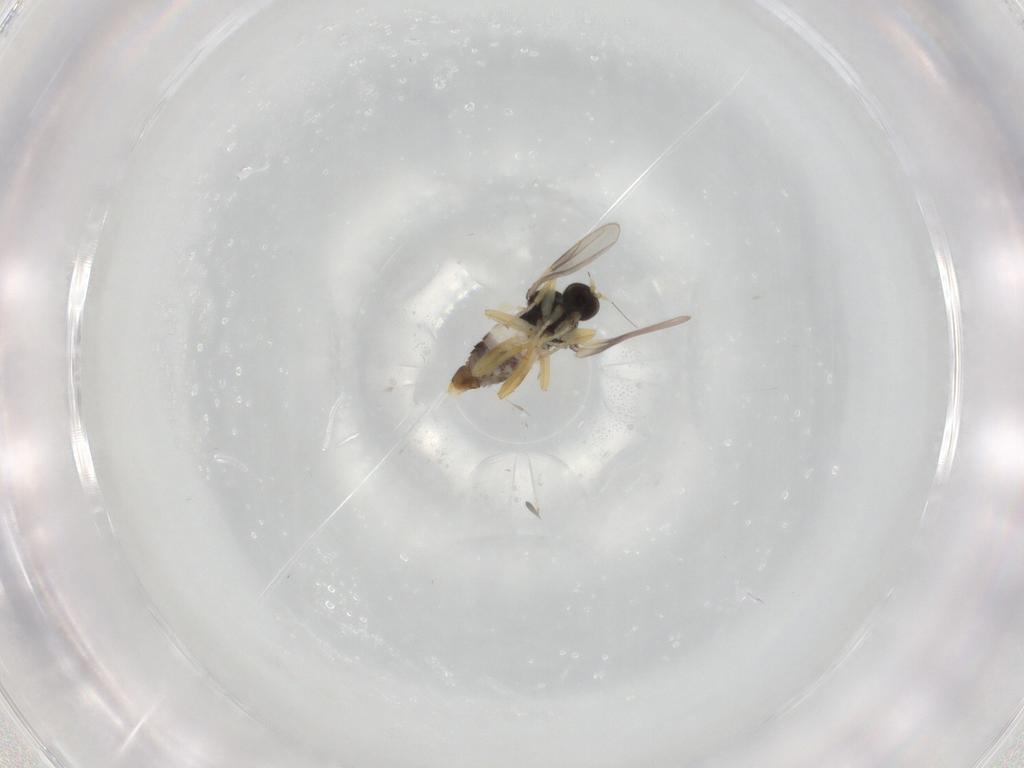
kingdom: Animalia
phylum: Arthropoda
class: Insecta
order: Diptera
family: Hybotidae
